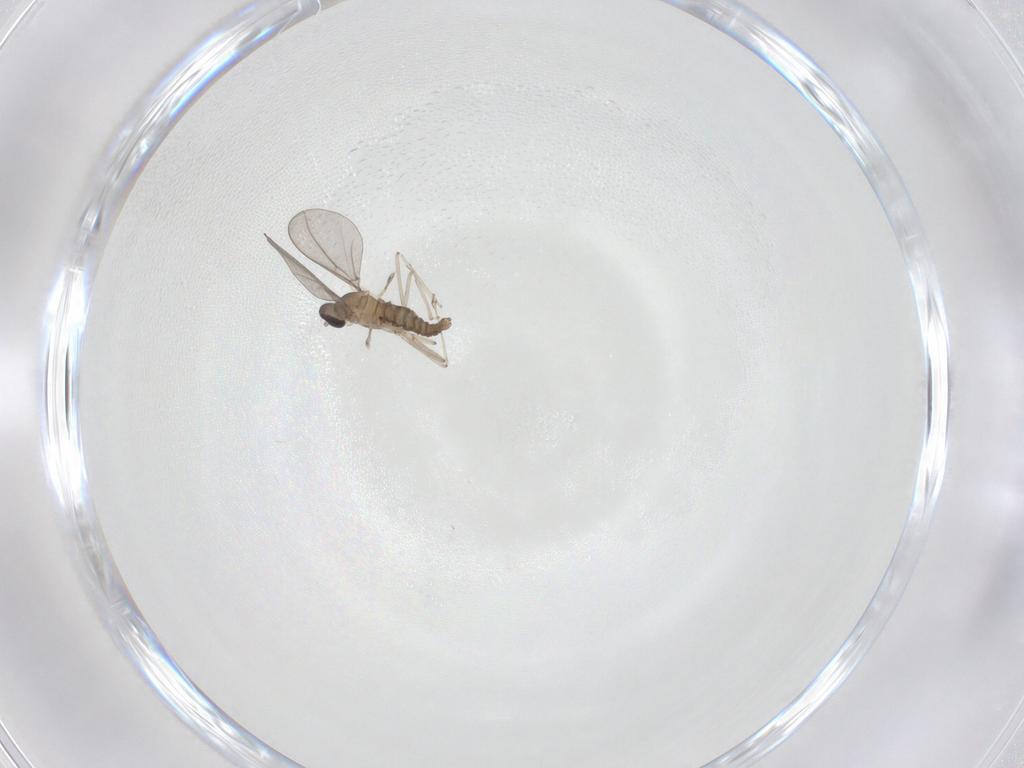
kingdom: Animalia
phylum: Arthropoda
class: Insecta
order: Diptera
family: Cecidomyiidae
